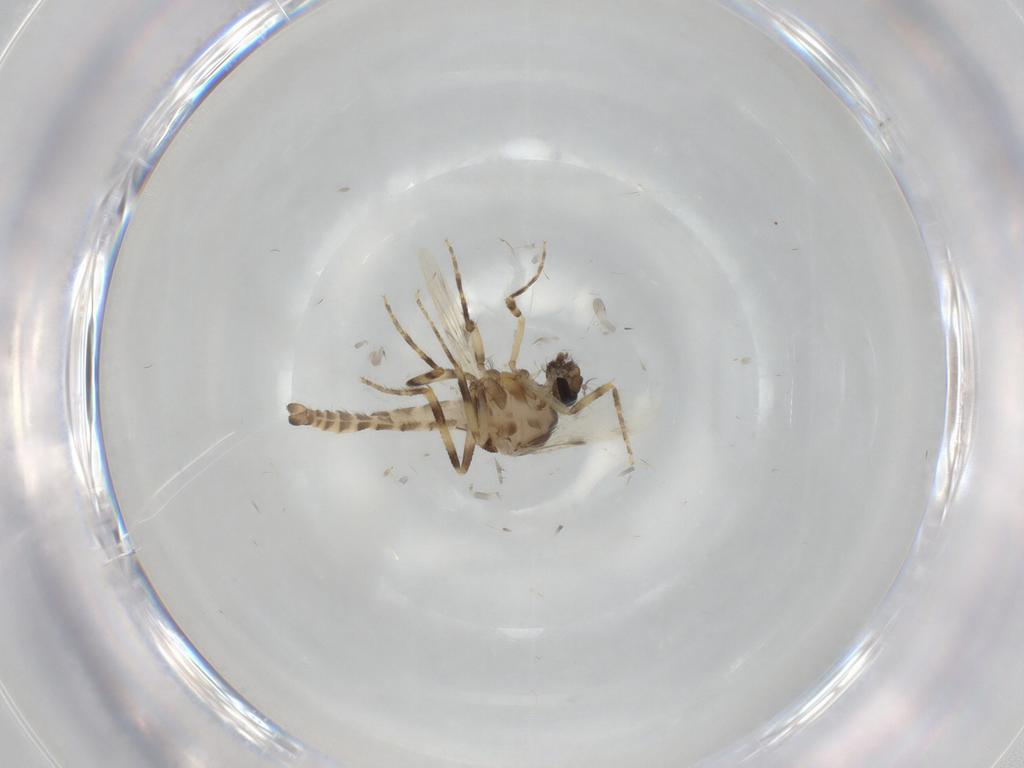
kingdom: Animalia
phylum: Arthropoda
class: Insecta
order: Diptera
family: Ceratopogonidae
